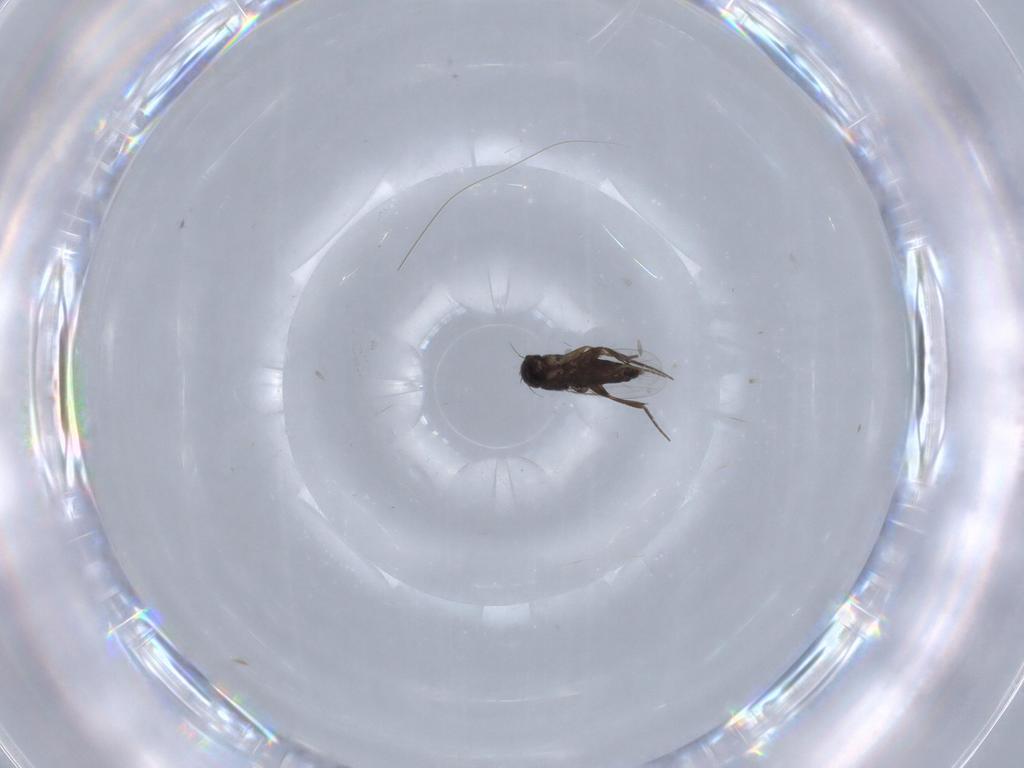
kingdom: Animalia
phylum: Arthropoda
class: Insecta
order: Diptera
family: Phoridae
